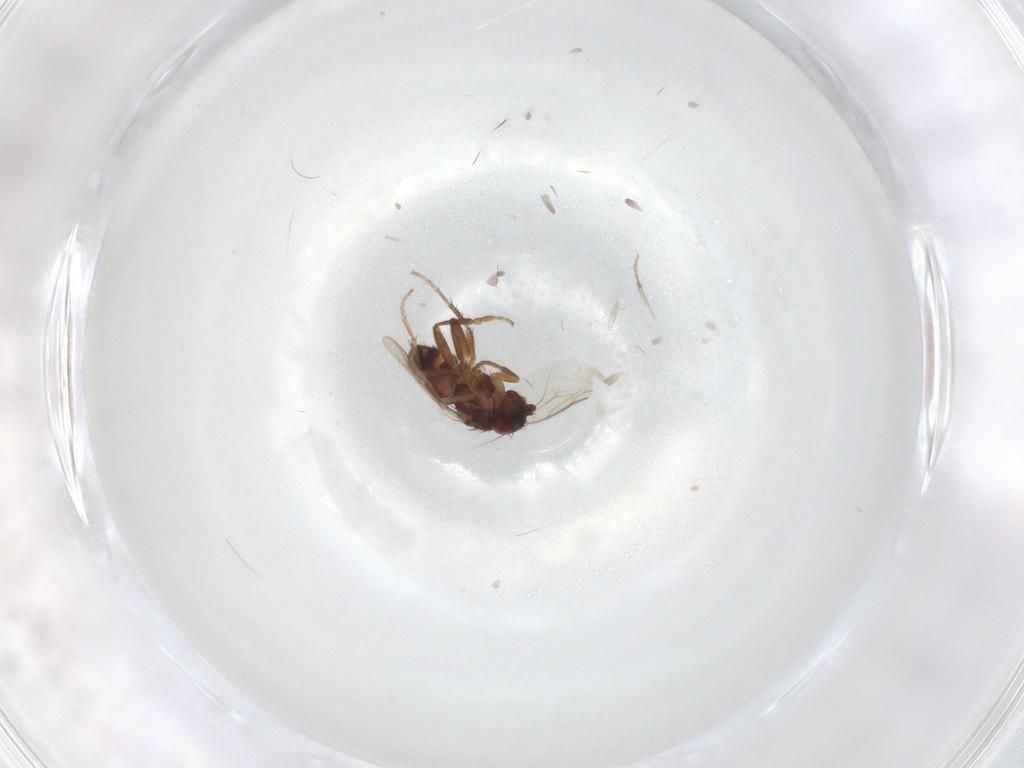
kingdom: Animalia
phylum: Arthropoda
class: Insecta
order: Diptera
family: Sphaeroceridae
